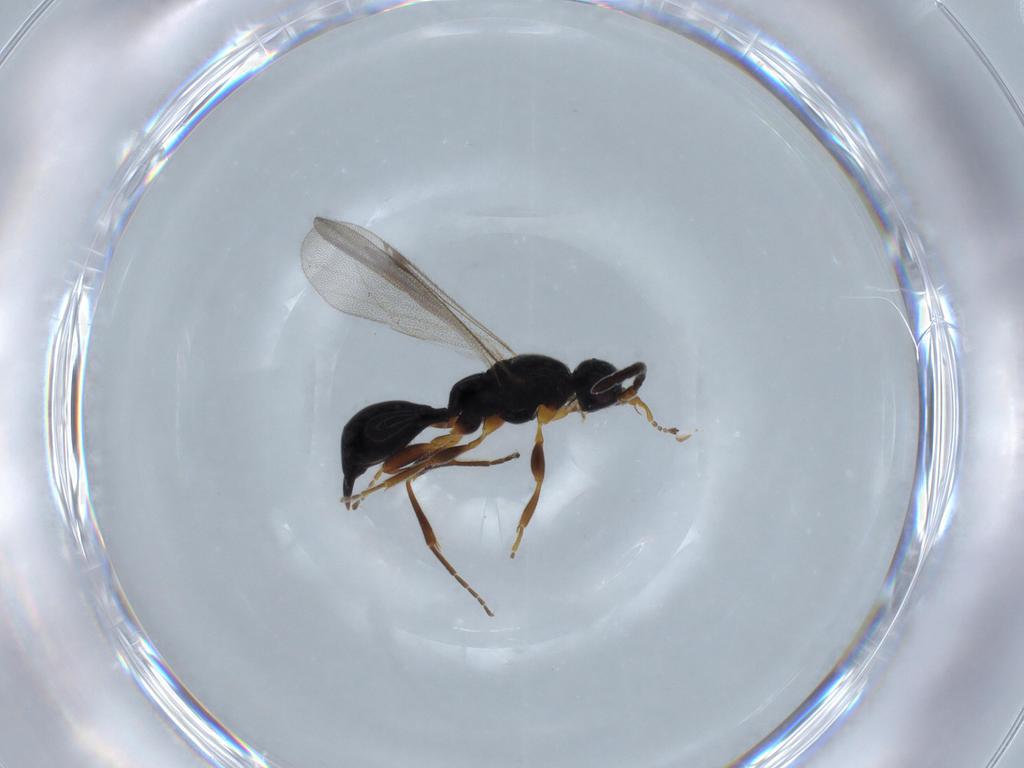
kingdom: Animalia
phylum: Arthropoda
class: Insecta
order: Hymenoptera
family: Proctotrupidae
